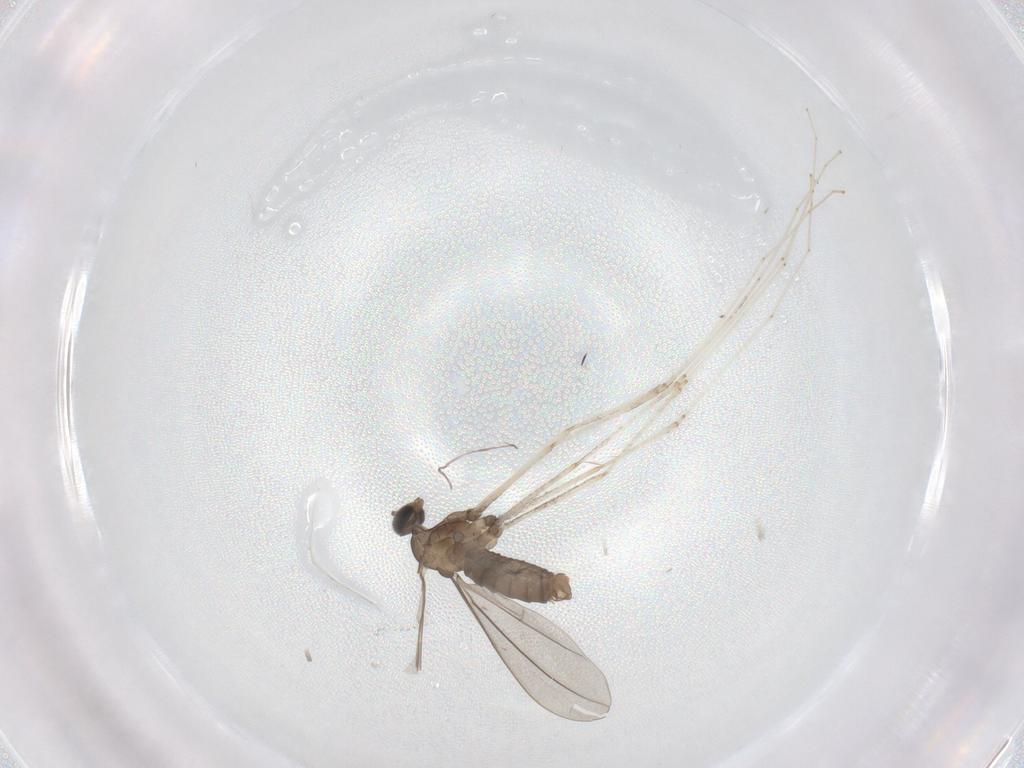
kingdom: Animalia
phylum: Arthropoda
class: Insecta
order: Diptera
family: Cecidomyiidae
